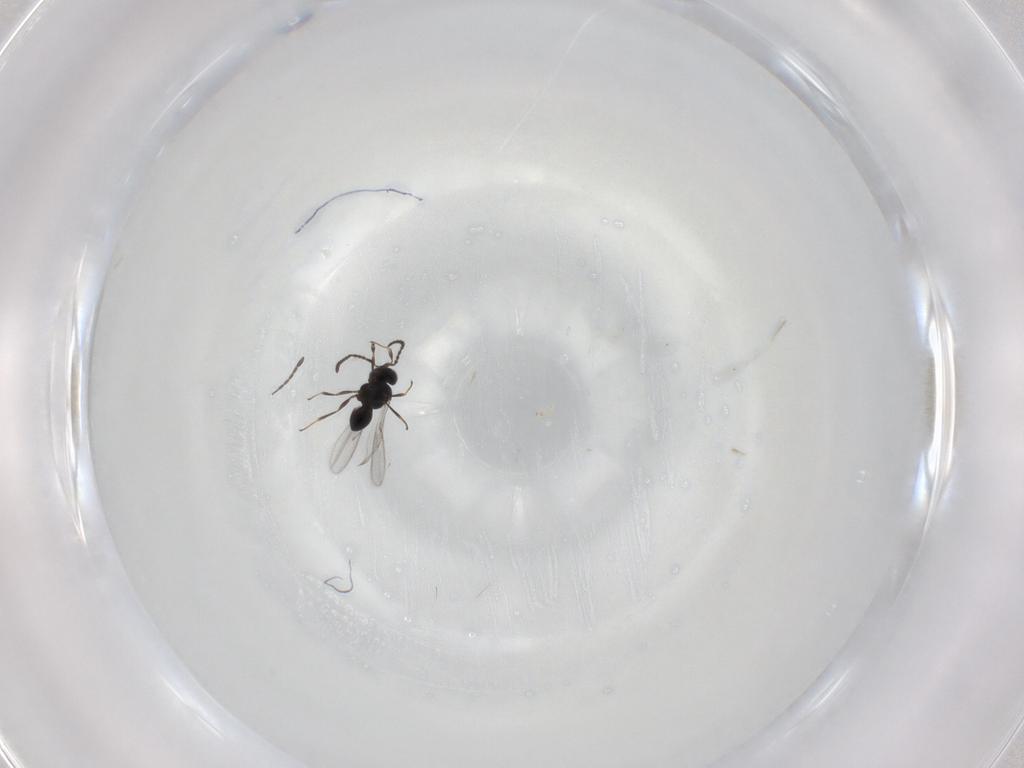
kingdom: Animalia
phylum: Arthropoda
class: Insecta
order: Hymenoptera
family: Scelionidae
